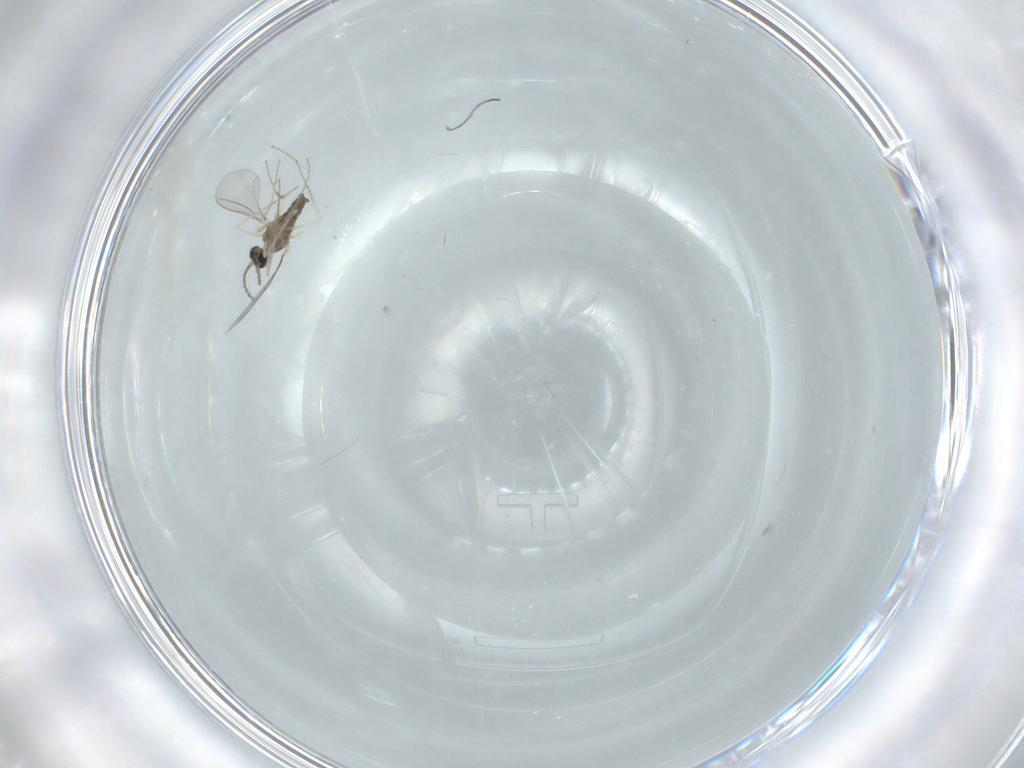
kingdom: Animalia
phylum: Arthropoda
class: Insecta
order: Diptera
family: Cecidomyiidae
